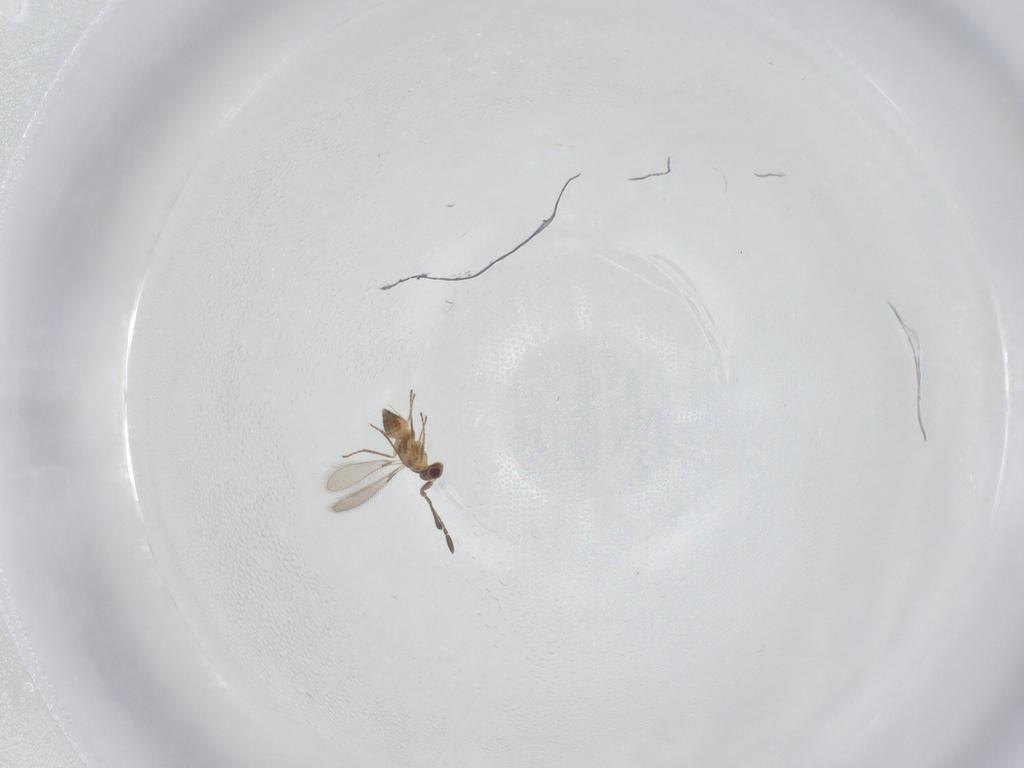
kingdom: Animalia
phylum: Arthropoda
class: Insecta
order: Hymenoptera
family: Mymaridae
